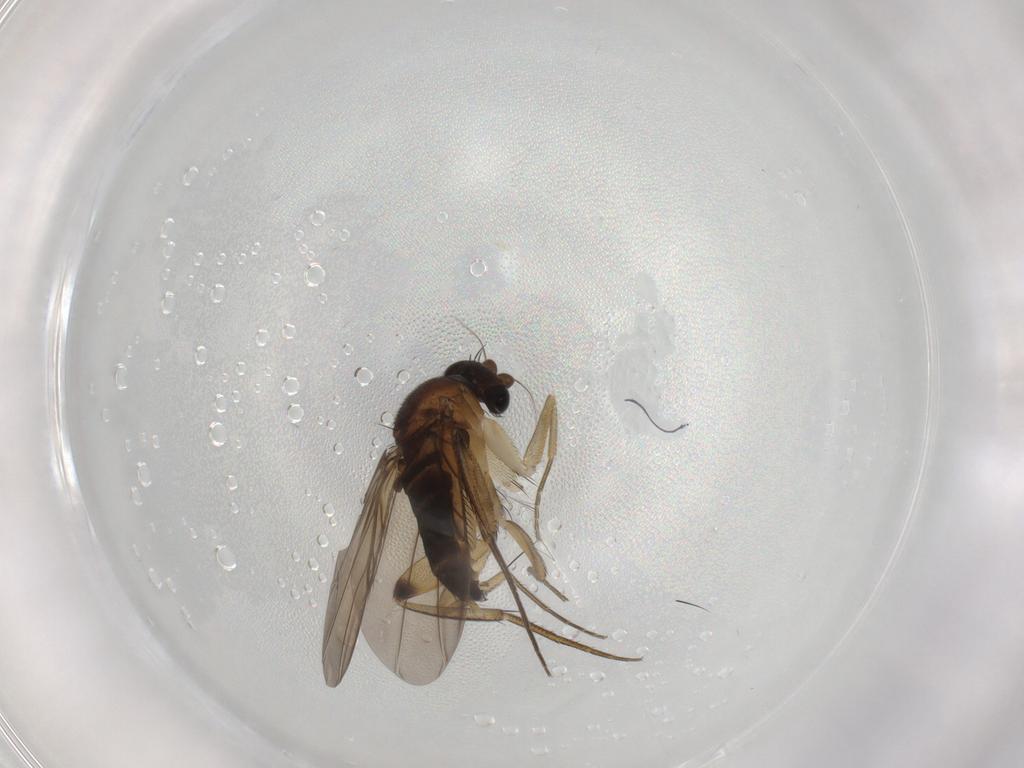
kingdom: Animalia
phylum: Arthropoda
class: Insecta
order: Diptera
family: Phoridae
